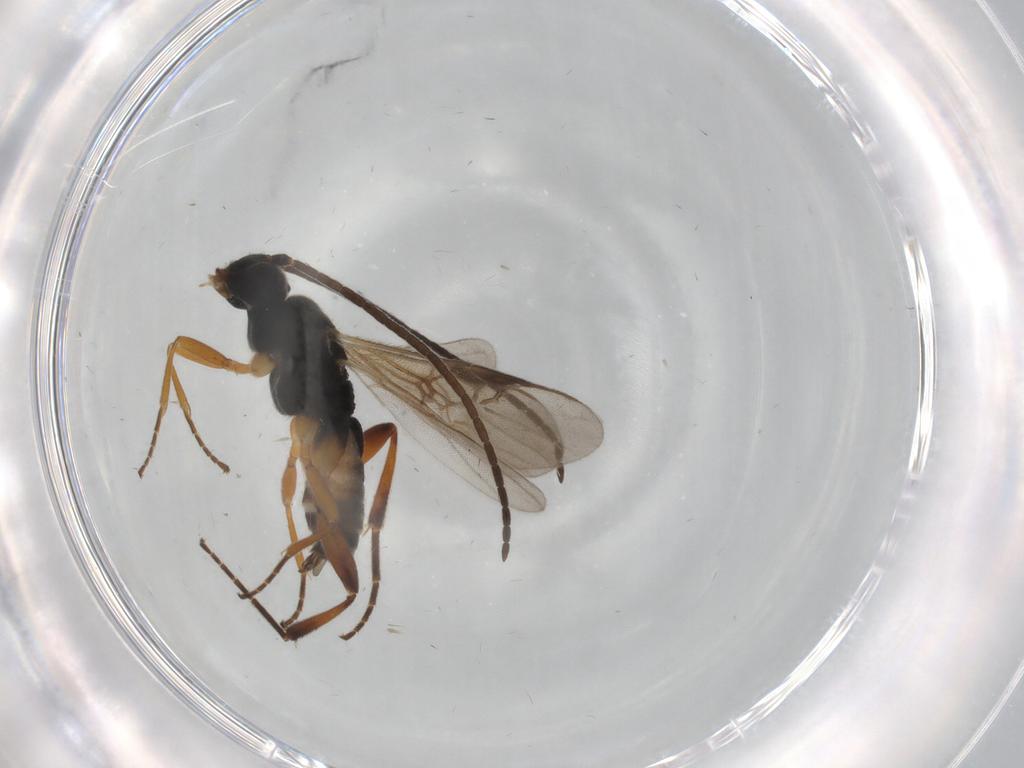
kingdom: Animalia
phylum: Arthropoda
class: Insecta
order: Hymenoptera
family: Braconidae
